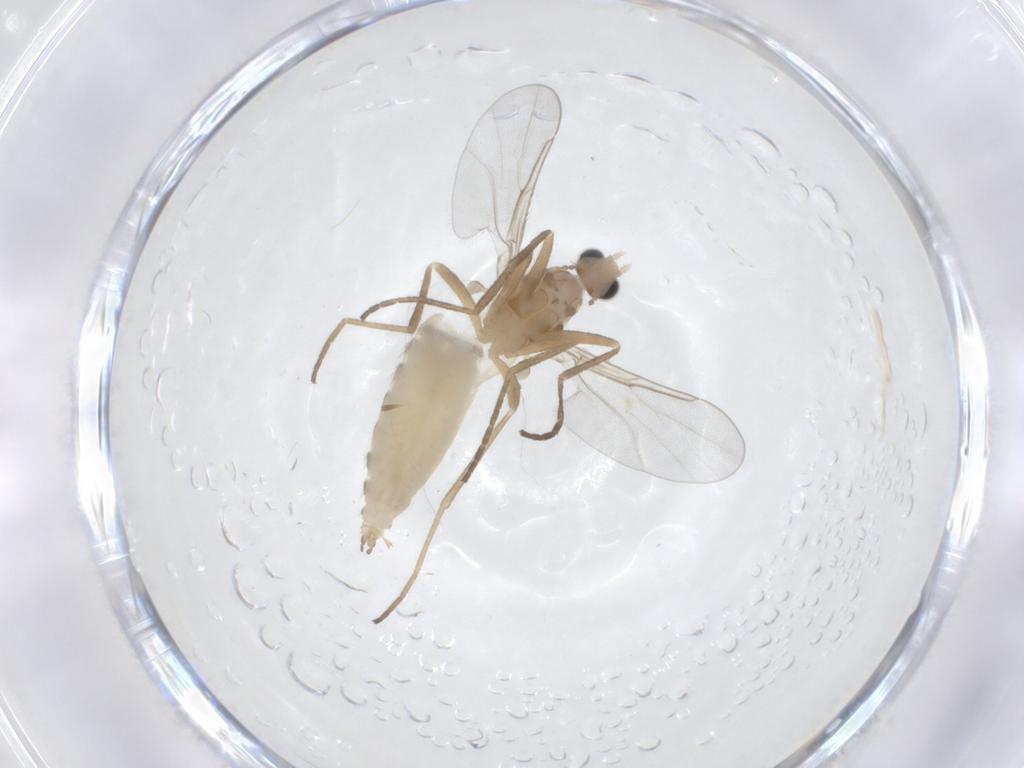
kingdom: Animalia
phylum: Arthropoda
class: Insecta
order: Diptera
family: Cecidomyiidae
